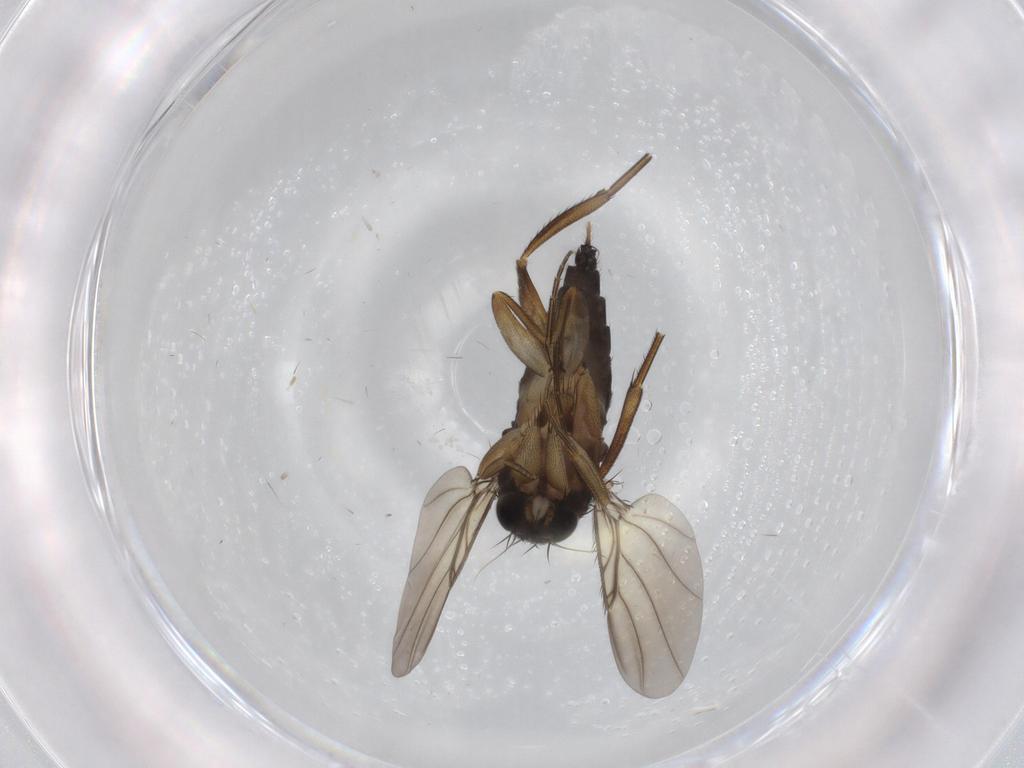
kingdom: Animalia
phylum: Arthropoda
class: Insecta
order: Diptera
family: Phoridae
